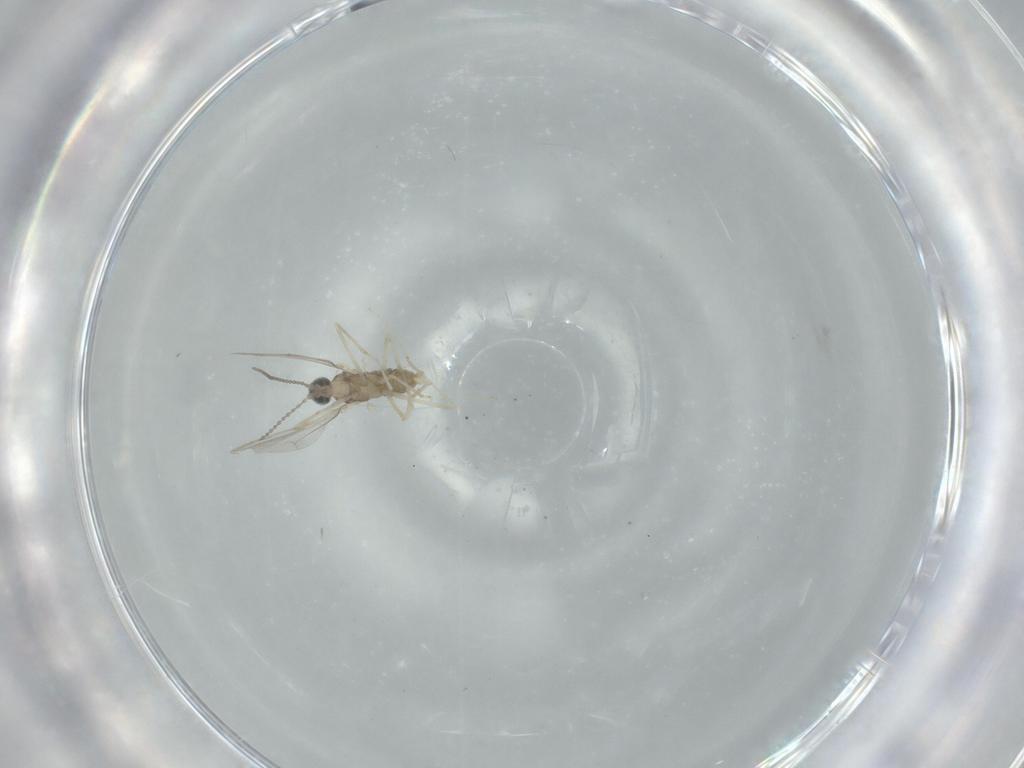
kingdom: Animalia
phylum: Arthropoda
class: Insecta
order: Diptera
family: Cecidomyiidae
